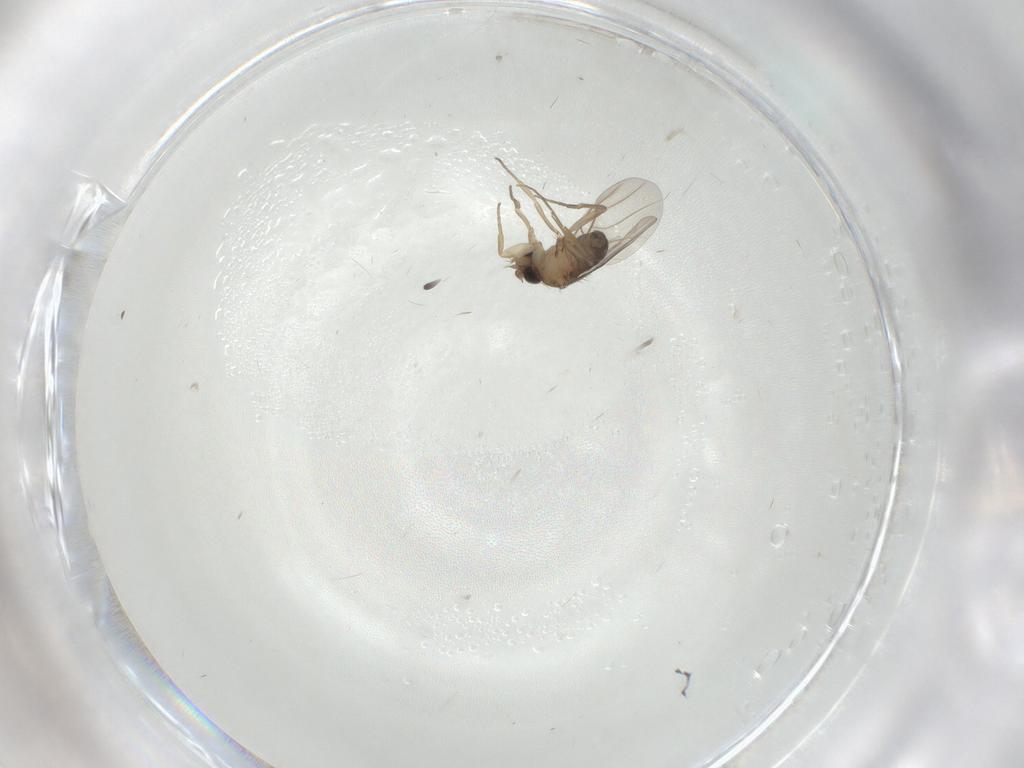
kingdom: Animalia
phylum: Arthropoda
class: Insecta
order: Diptera
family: Phoridae
